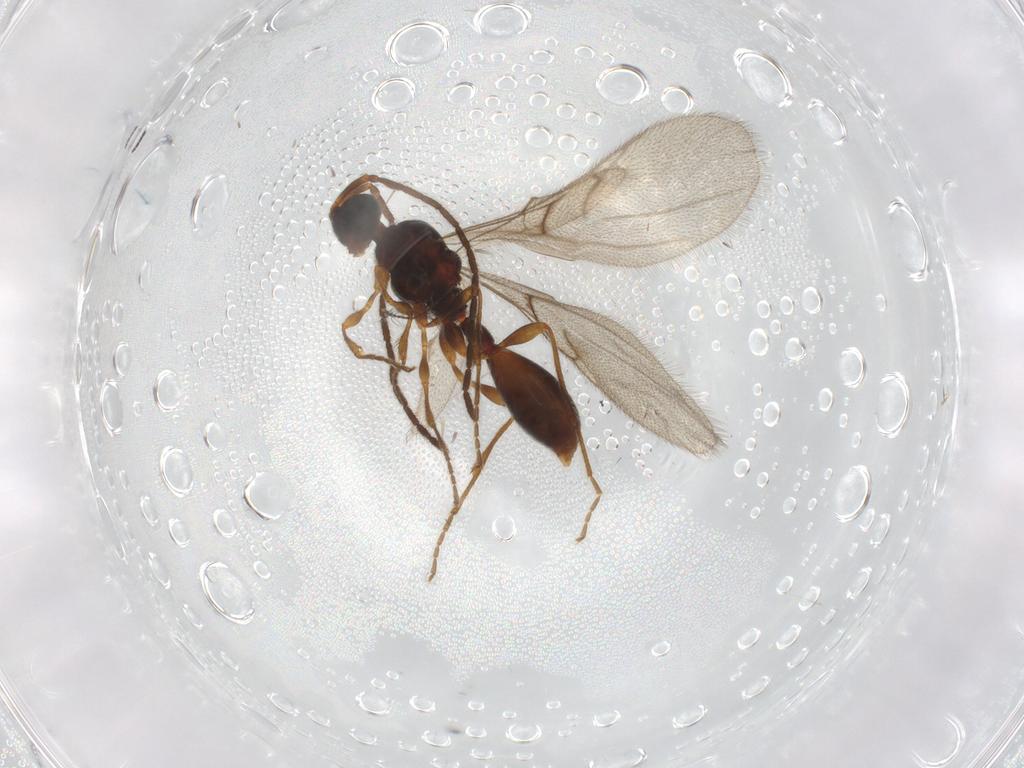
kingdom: Animalia
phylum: Arthropoda
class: Insecta
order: Hymenoptera
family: Diapriidae
